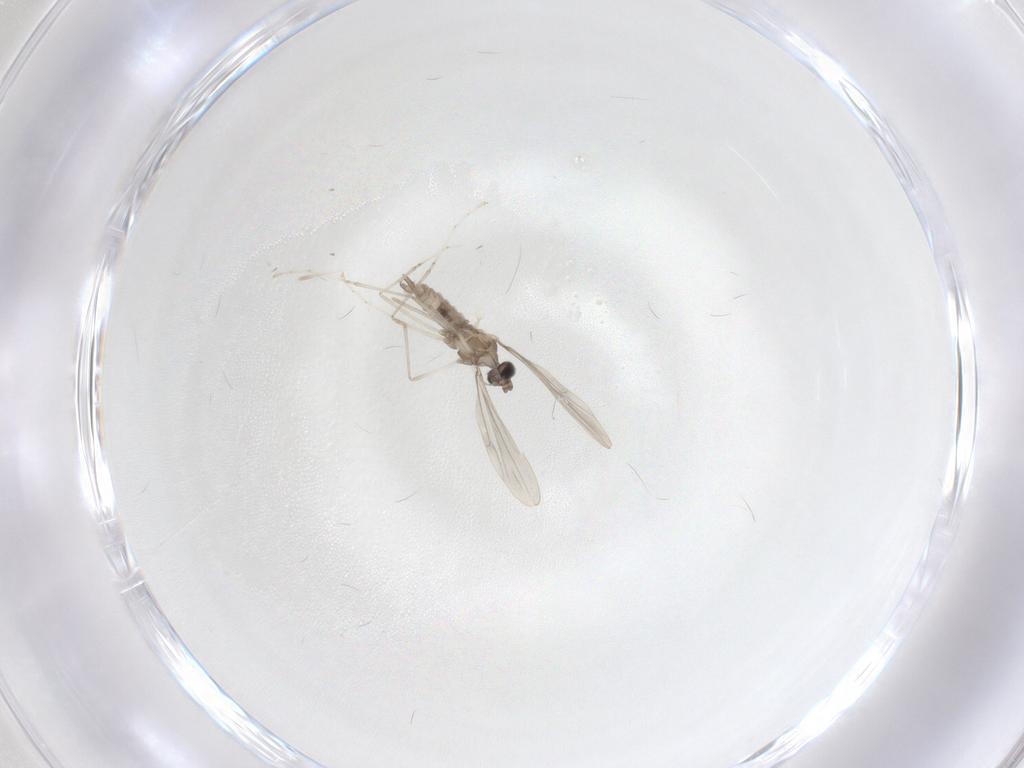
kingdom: Animalia
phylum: Arthropoda
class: Insecta
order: Diptera
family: Cecidomyiidae
